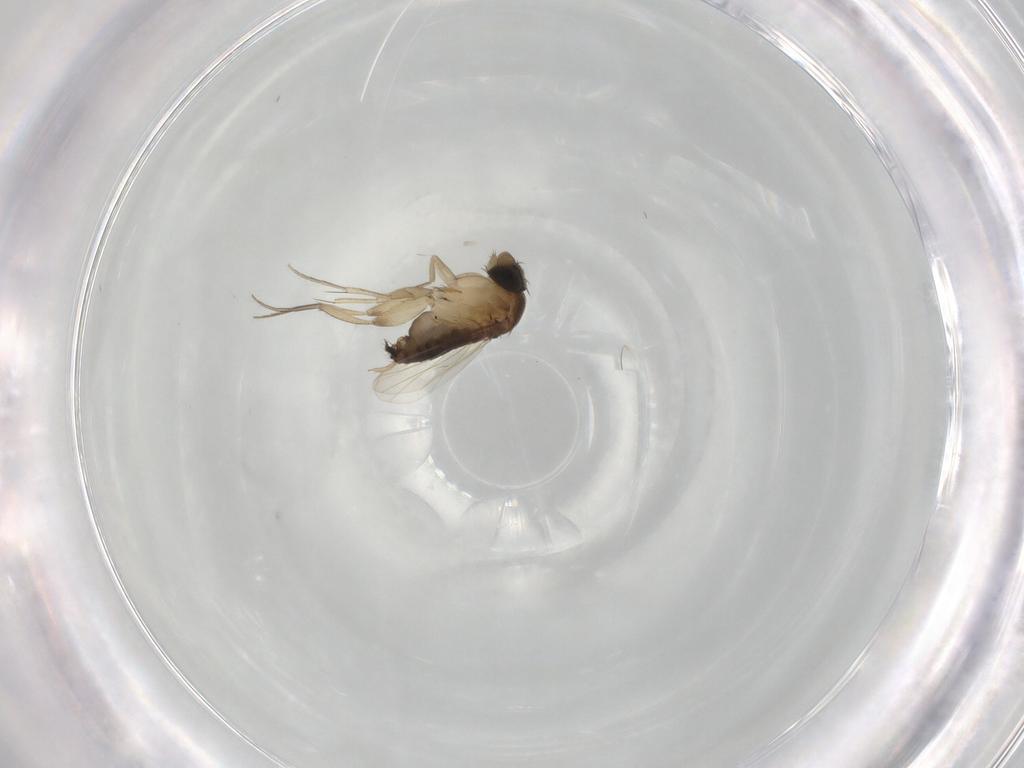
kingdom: Animalia
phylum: Arthropoda
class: Insecta
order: Diptera
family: Phoridae
